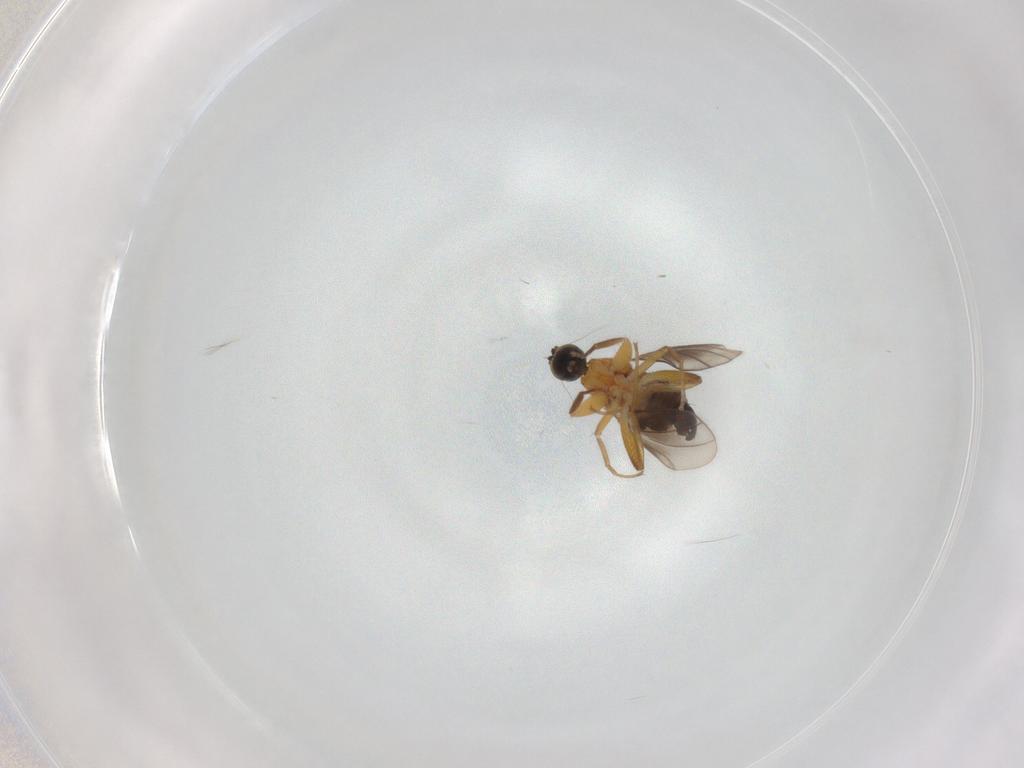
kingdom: Animalia
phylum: Arthropoda
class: Insecta
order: Diptera
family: Hybotidae
